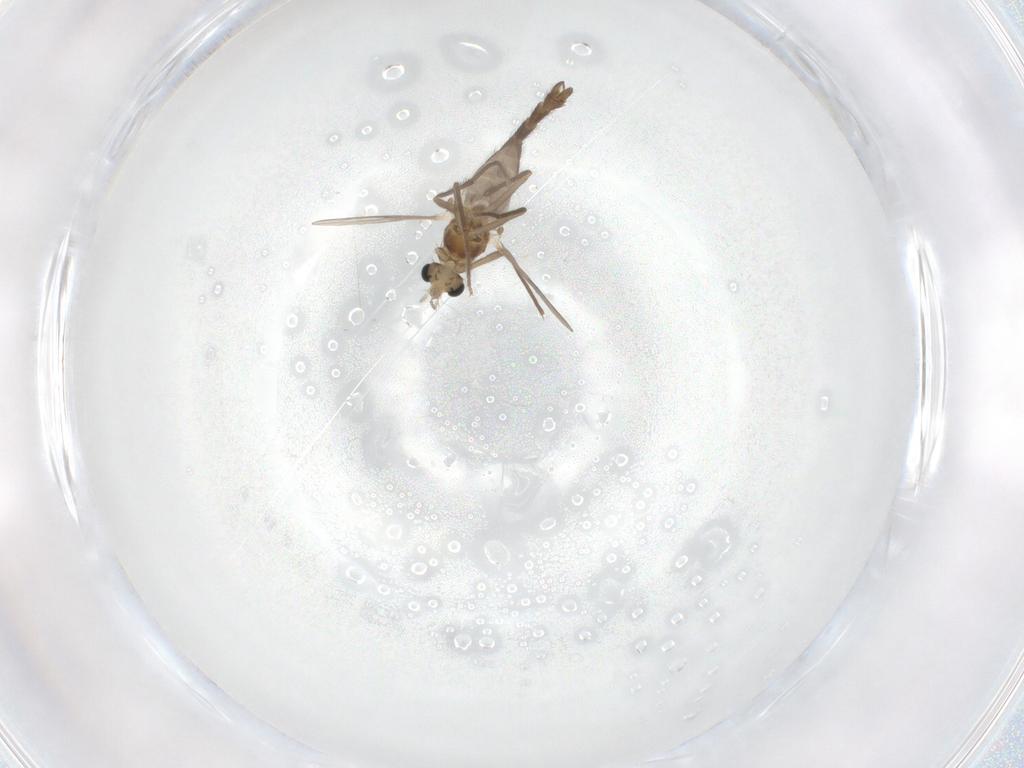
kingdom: Animalia
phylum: Arthropoda
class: Insecta
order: Diptera
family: Chironomidae
